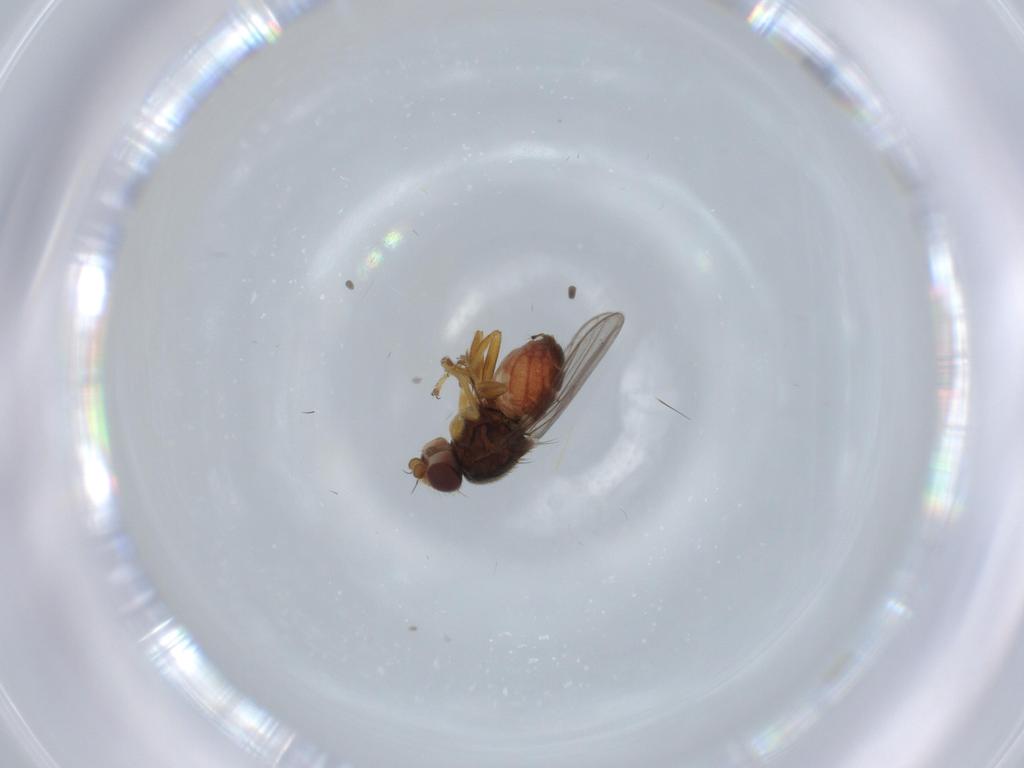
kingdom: Animalia
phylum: Arthropoda
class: Insecta
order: Diptera
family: Chloropidae
